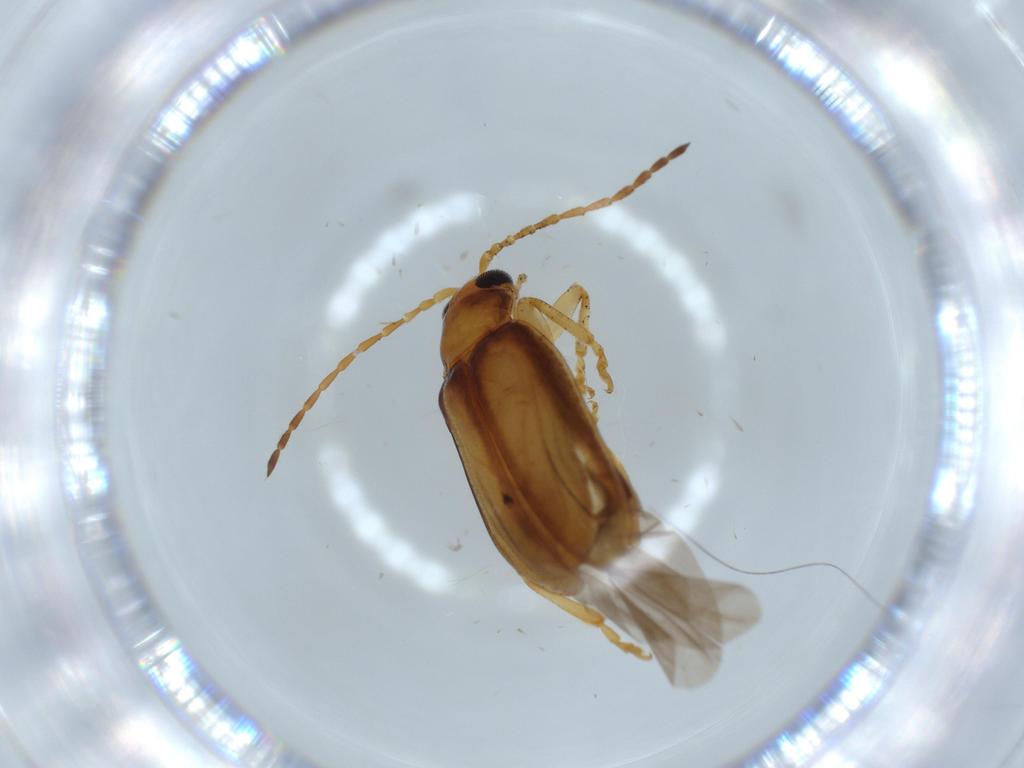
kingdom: Animalia
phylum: Arthropoda
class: Insecta
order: Coleoptera
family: Chrysomelidae
